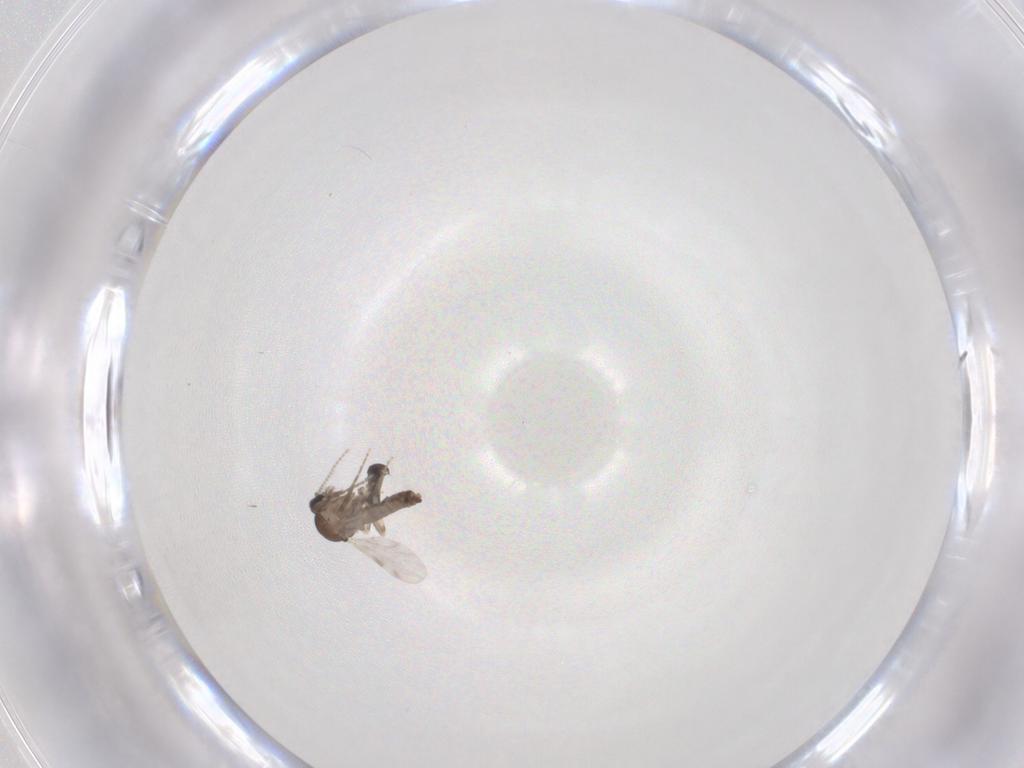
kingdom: Animalia
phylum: Arthropoda
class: Insecta
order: Diptera
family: Ceratopogonidae
